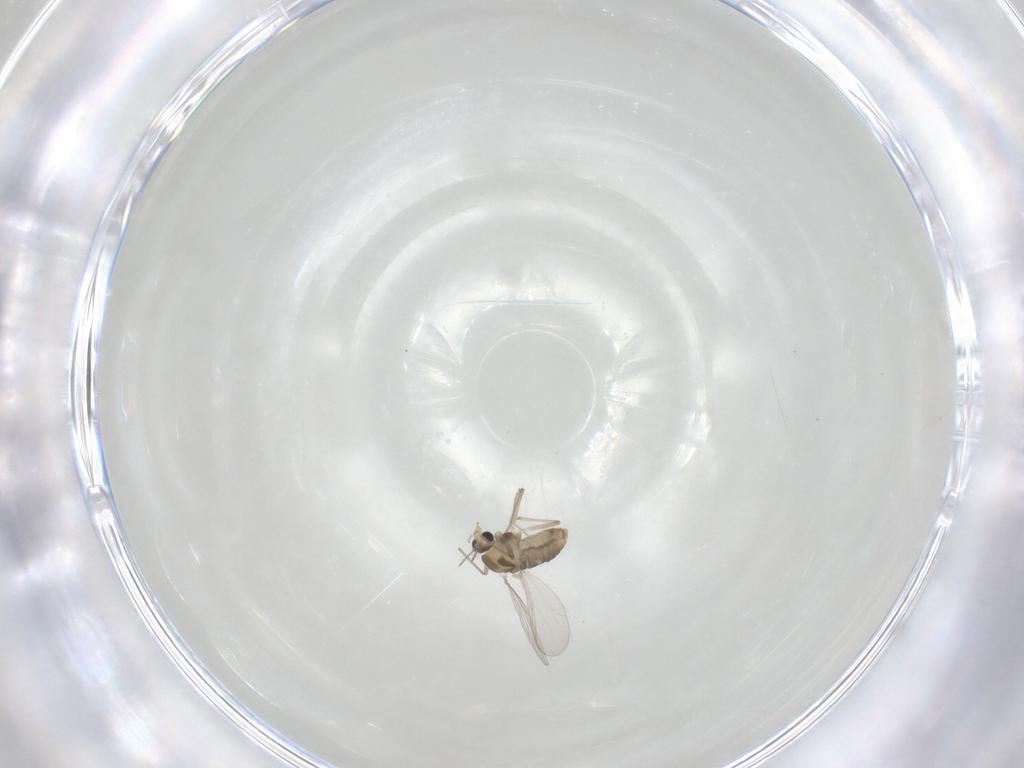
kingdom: Animalia
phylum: Arthropoda
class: Insecta
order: Diptera
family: Chironomidae
